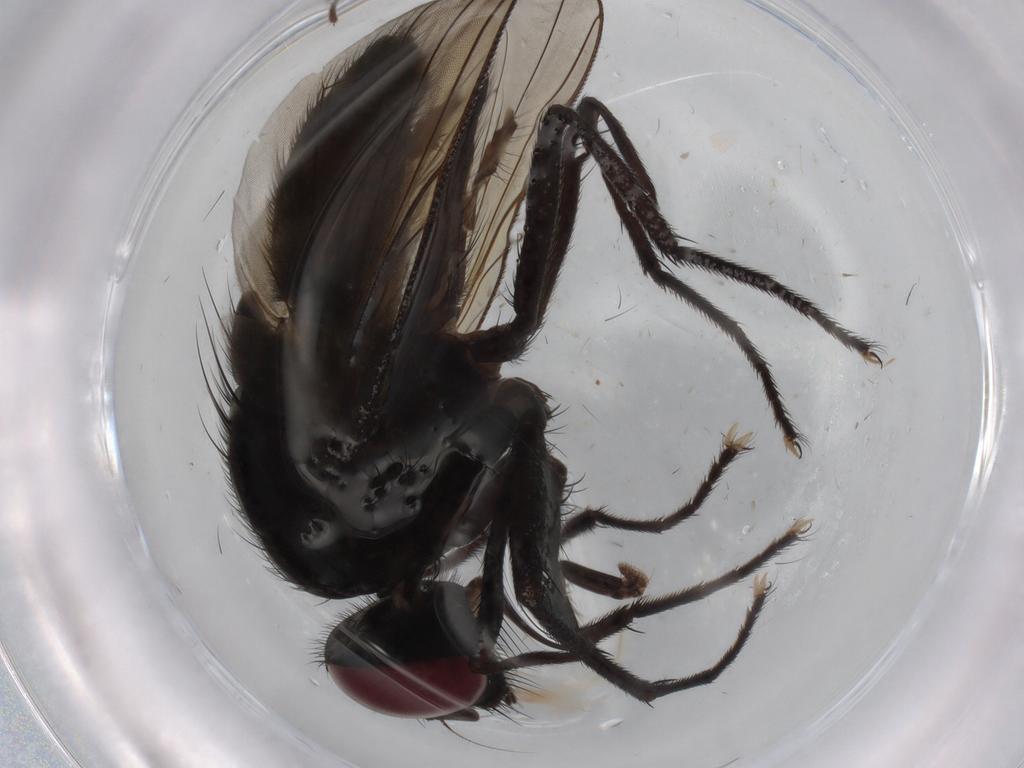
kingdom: Animalia
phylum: Arthropoda
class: Insecta
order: Diptera
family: Muscidae
